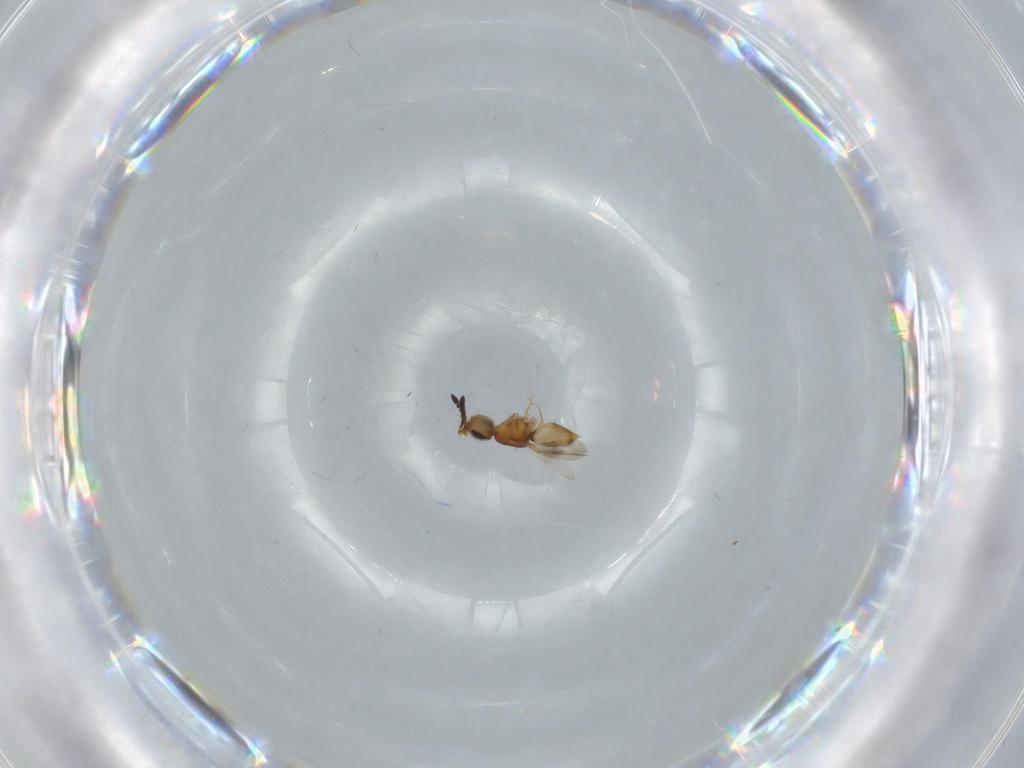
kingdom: Animalia
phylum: Arthropoda
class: Insecta
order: Hymenoptera
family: Ceraphronidae
